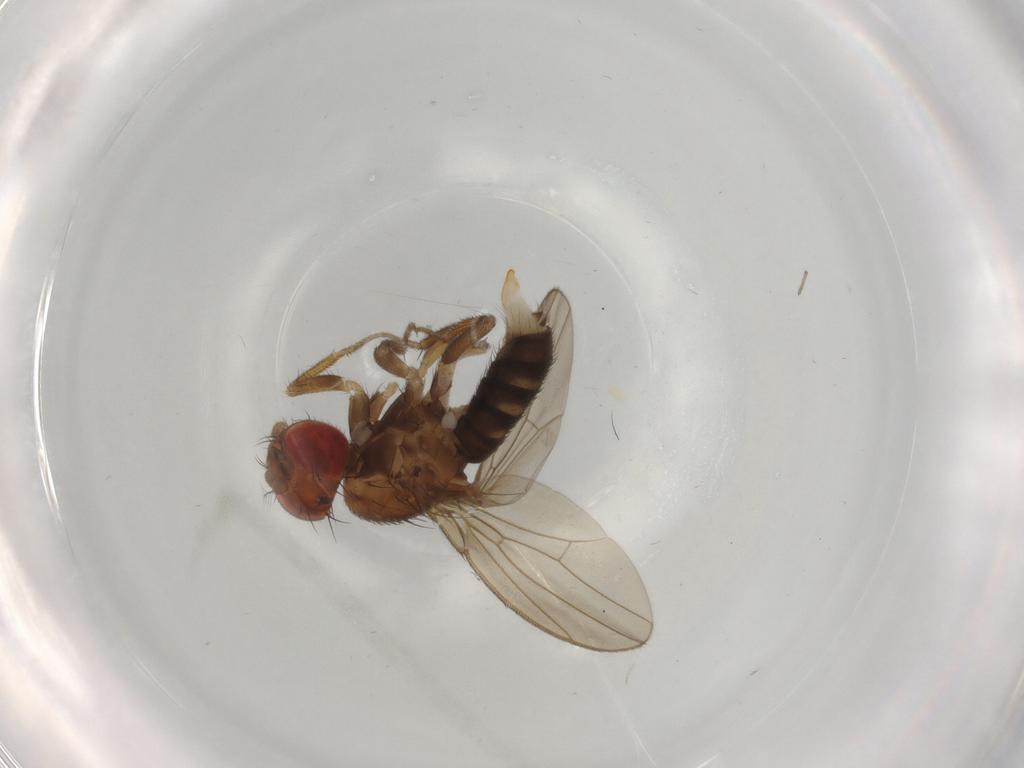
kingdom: Animalia
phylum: Arthropoda
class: Insecta
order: Diptera
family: Drosophilidae
